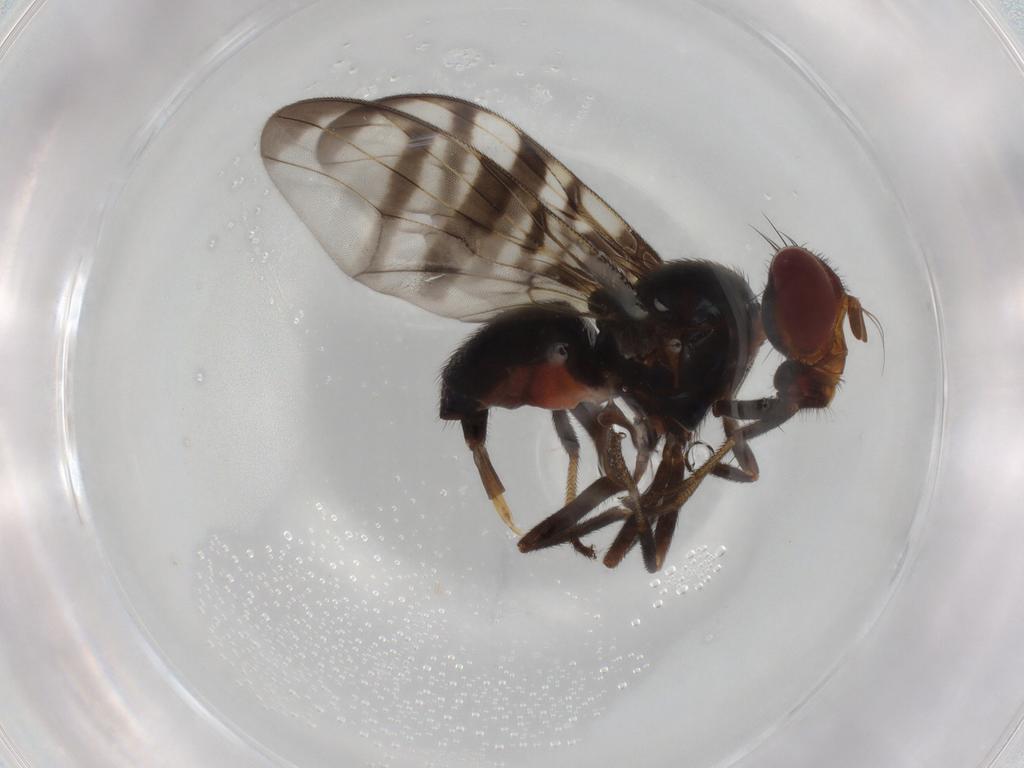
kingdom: Animalia
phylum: Arthropoda
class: Insecta
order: Diptera
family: Platystomatidae
